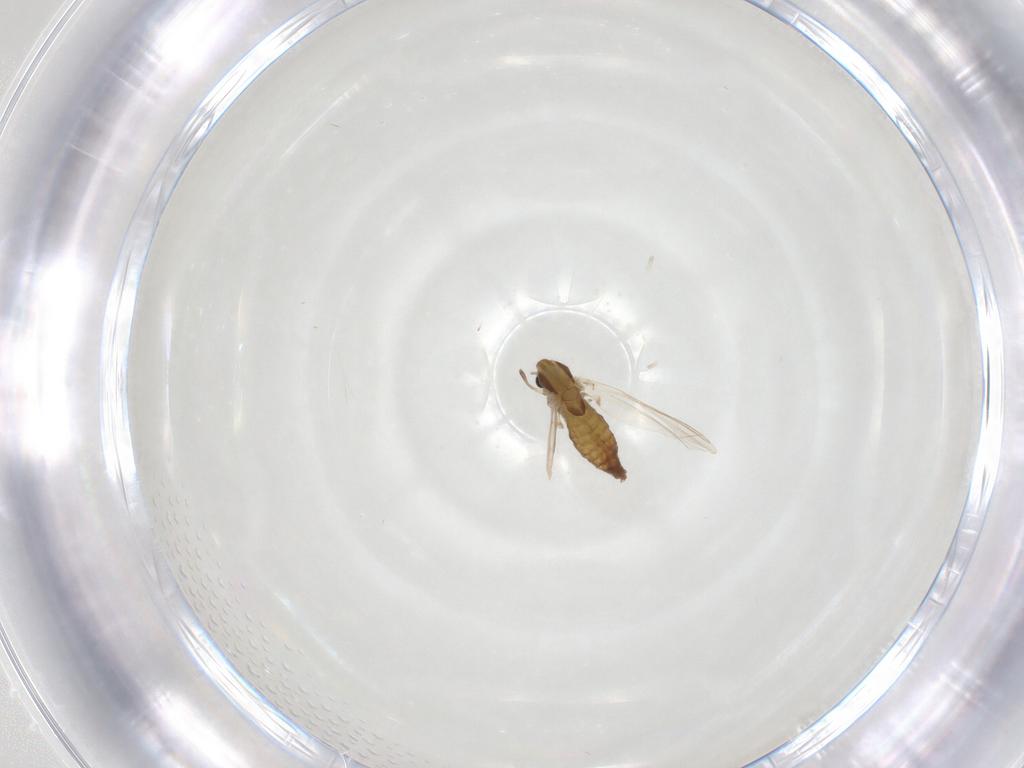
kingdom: Animalia
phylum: Arthropoda
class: Insecta
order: Diptera
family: Chironomidae
